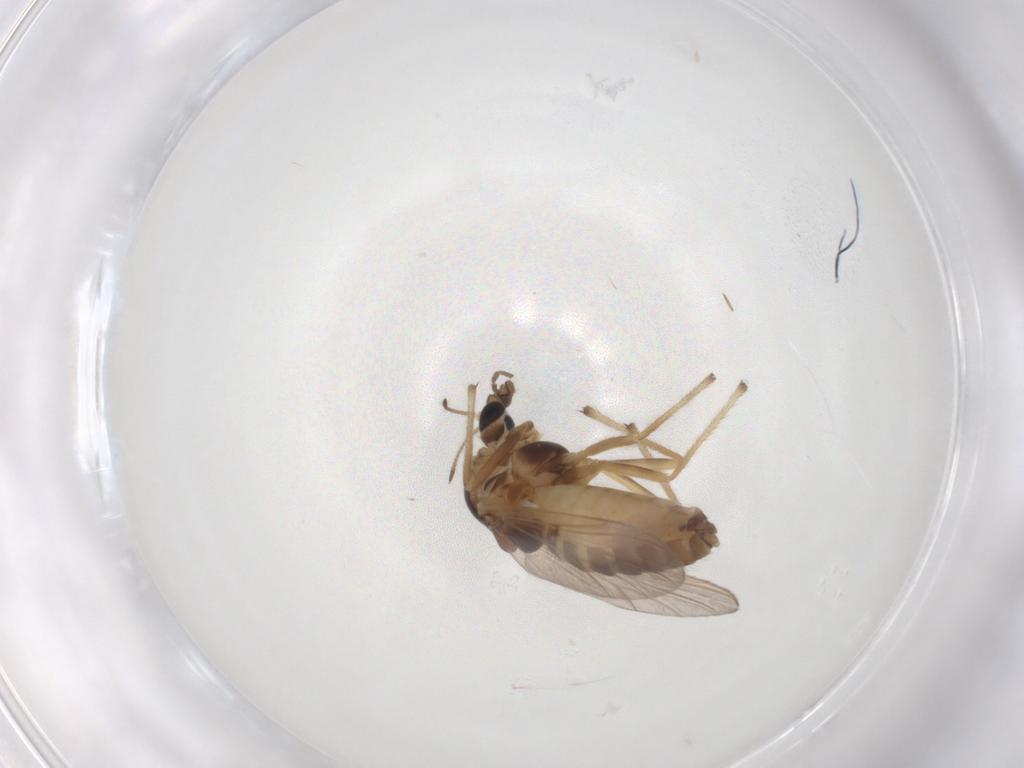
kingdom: Animalia
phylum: Arthropoda
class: Insecta
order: Diptera
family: Chironomidae
